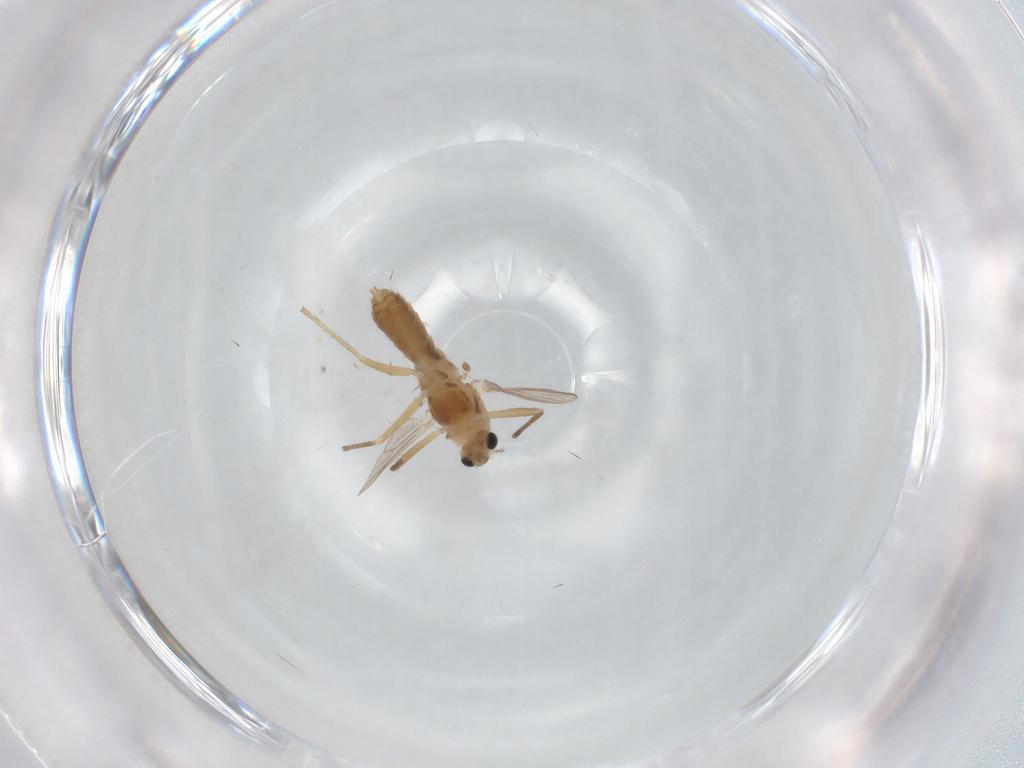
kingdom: Animalia
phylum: Arthropoda
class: Insecta
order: Diptera
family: Chironomidae
